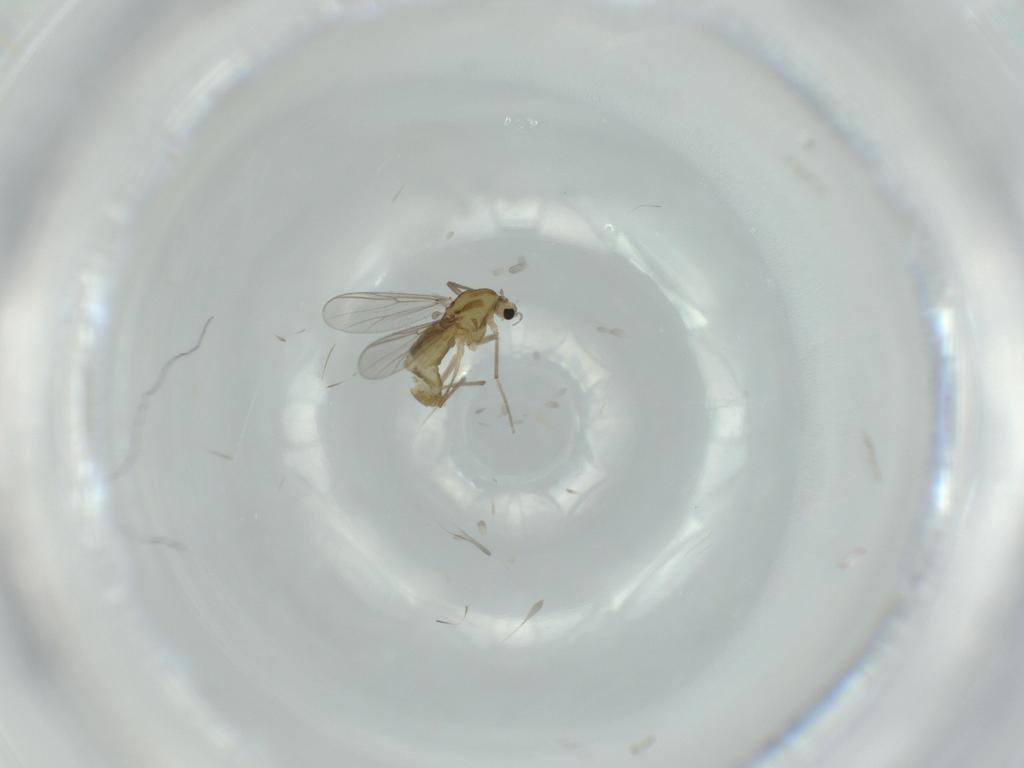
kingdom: Animalia
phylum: Arthropoda
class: Insecta
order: Diptera
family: Chironomidae
